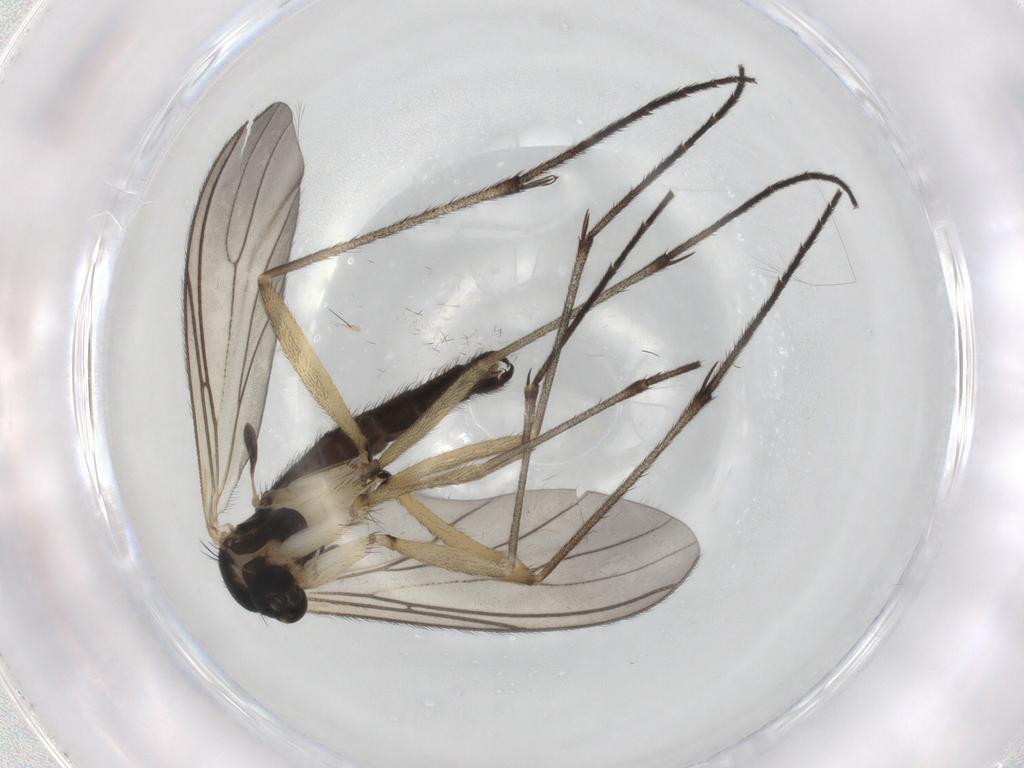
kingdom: Animalia
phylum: Arthropoda
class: Insecta
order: Diptera
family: Sciaridae
